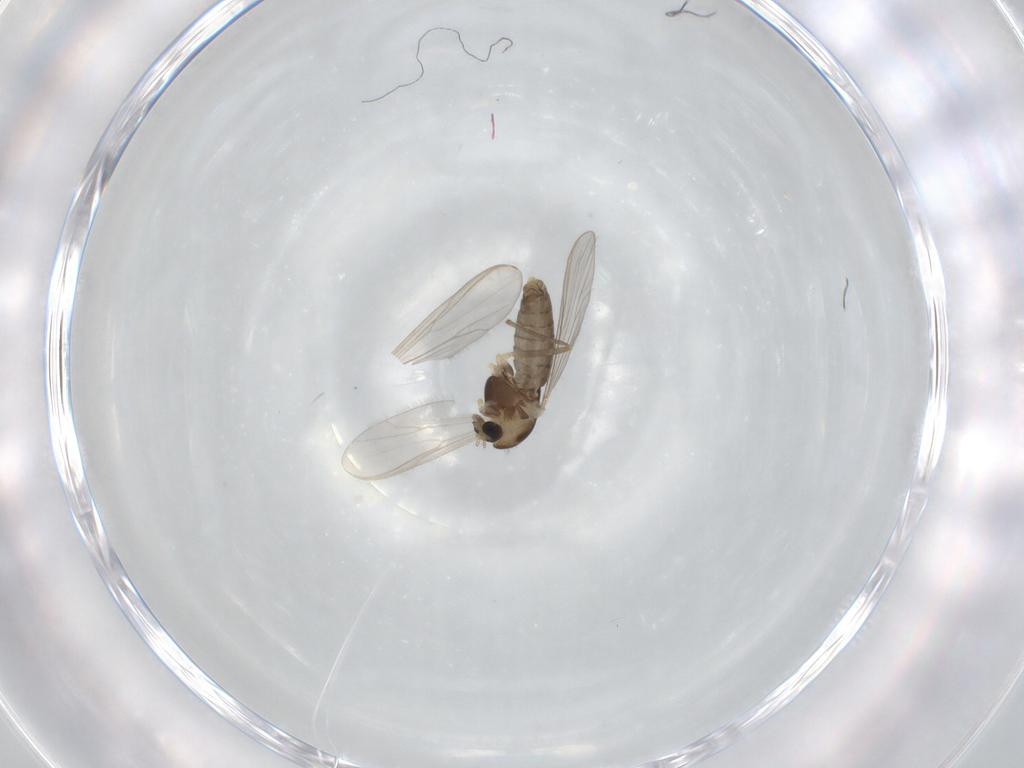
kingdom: Animalia
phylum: Arthropoda
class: Insecta
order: Diptera
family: Chironomidae
